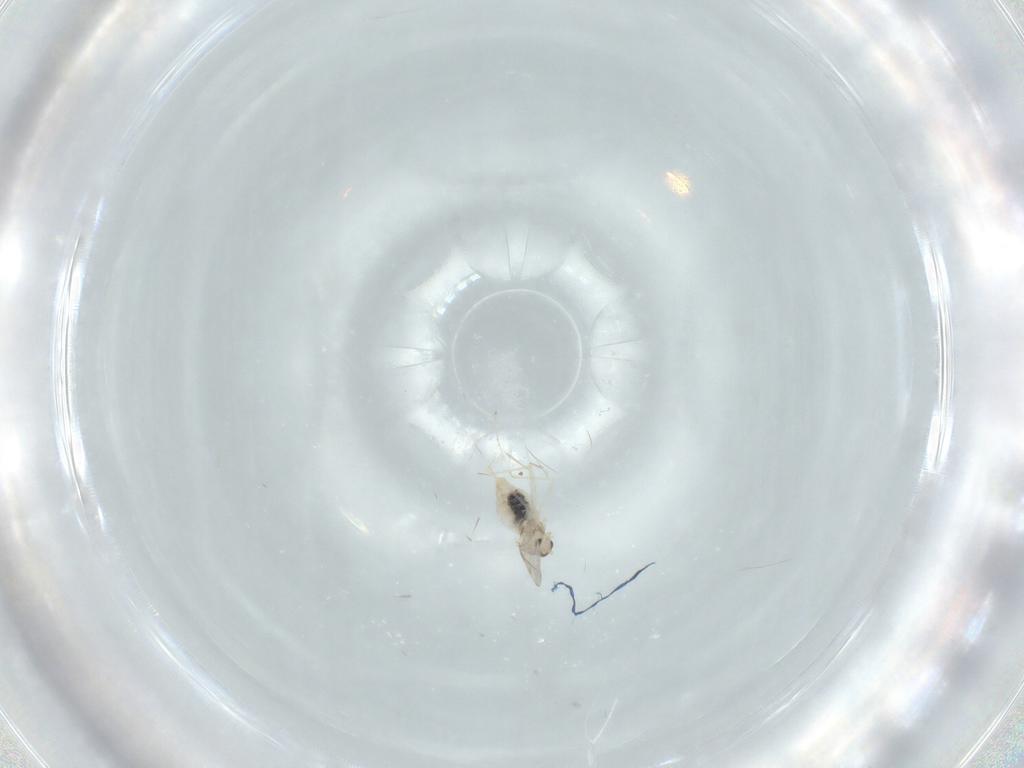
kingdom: Animalia
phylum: Arthropoda
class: Insecta
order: Diptera
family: Cecidomyiidae
